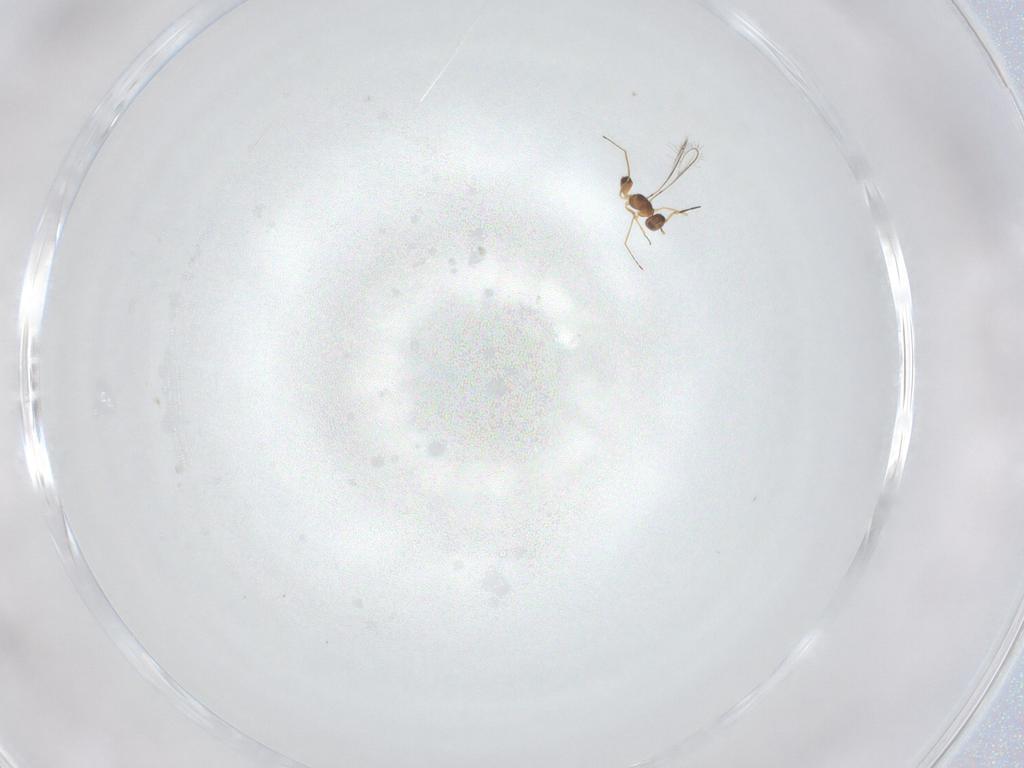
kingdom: Animalia
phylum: Arthropoda
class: Insecta
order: Hymenoptera
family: Mymaridae
